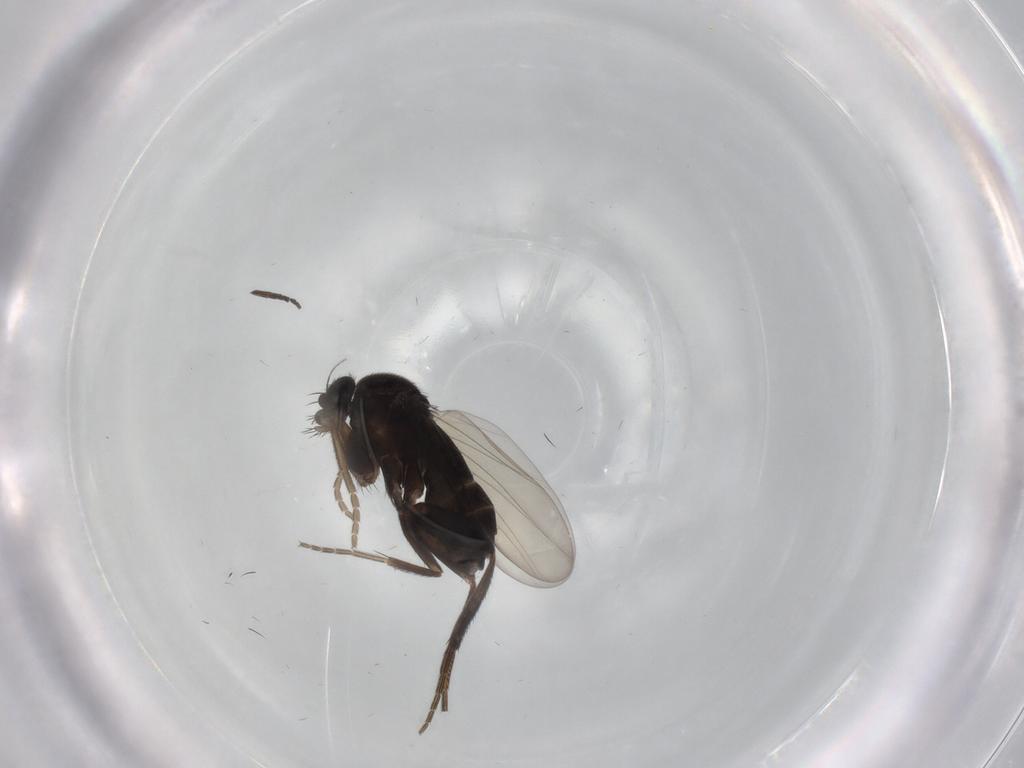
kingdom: Animalia
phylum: Arthropoda
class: Insecta
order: Diptera
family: Phoridae
